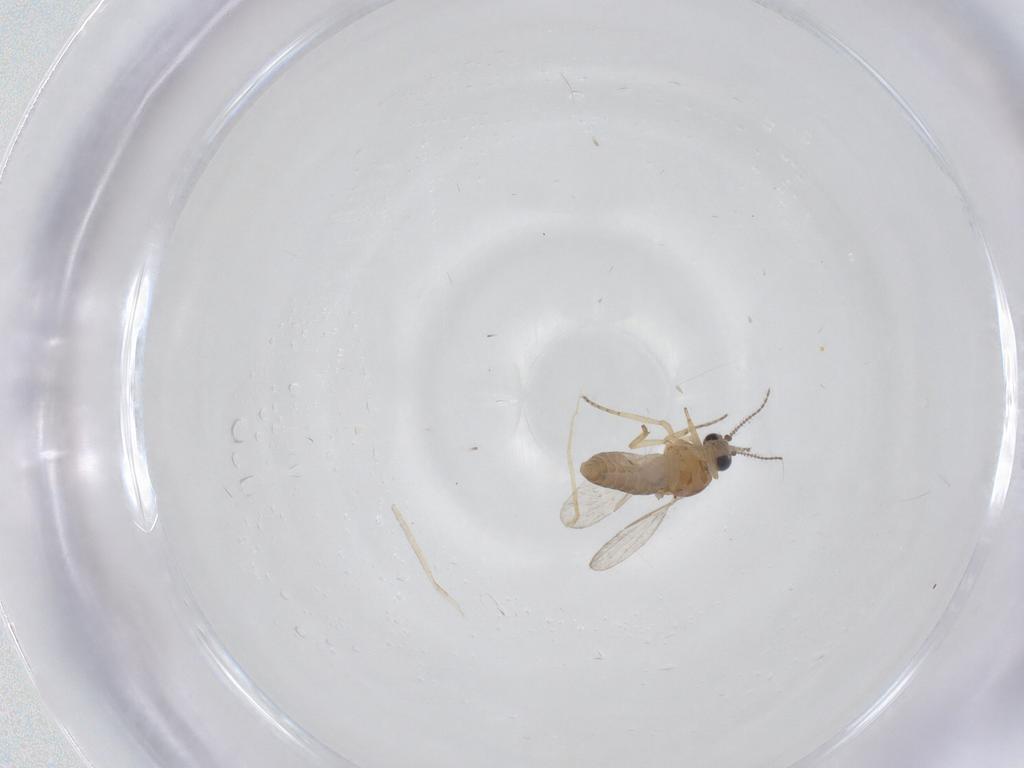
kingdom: Animalia
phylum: Arthropoda
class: Insecta
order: Diptera
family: Ceratopogonidae
